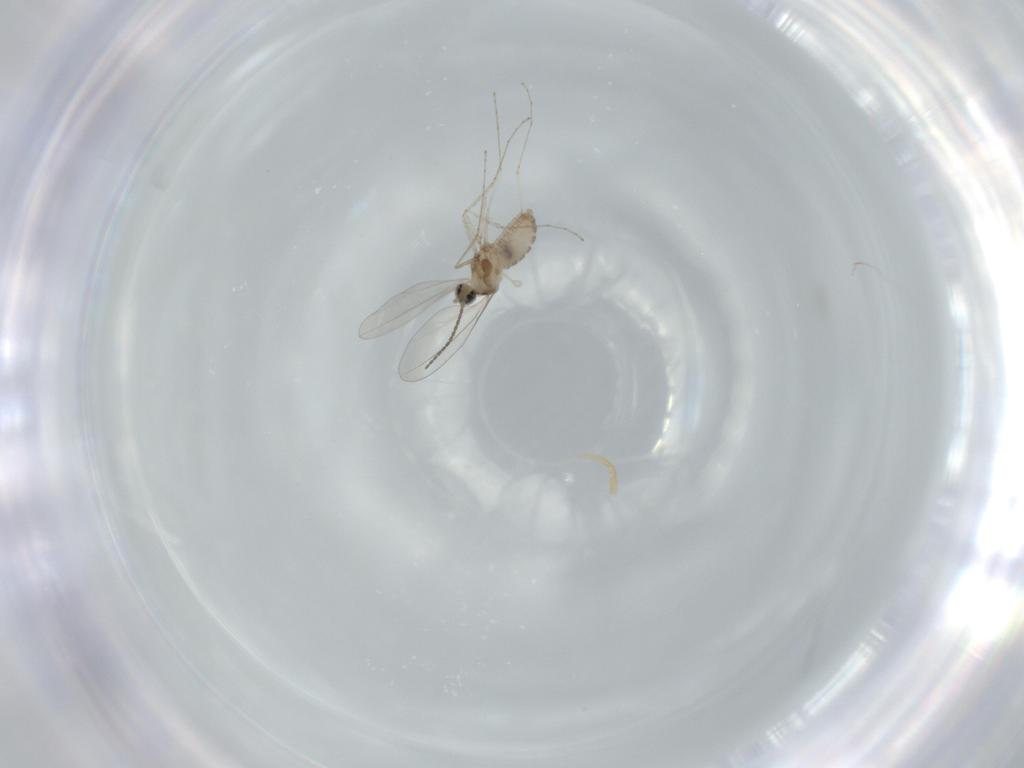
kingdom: Animalia
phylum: Arthropoda
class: Insecta
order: Diptera
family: Cecidomyiidae
